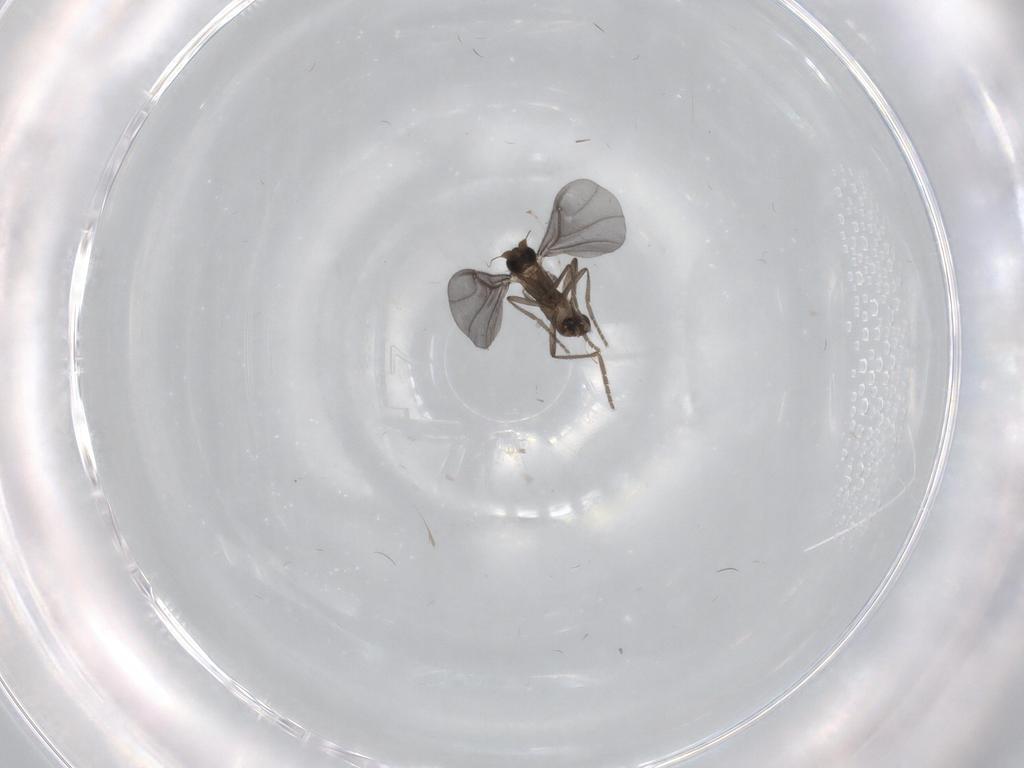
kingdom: Animalia
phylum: Arthropoda
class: Insecta
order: Diptera
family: Phoridae
